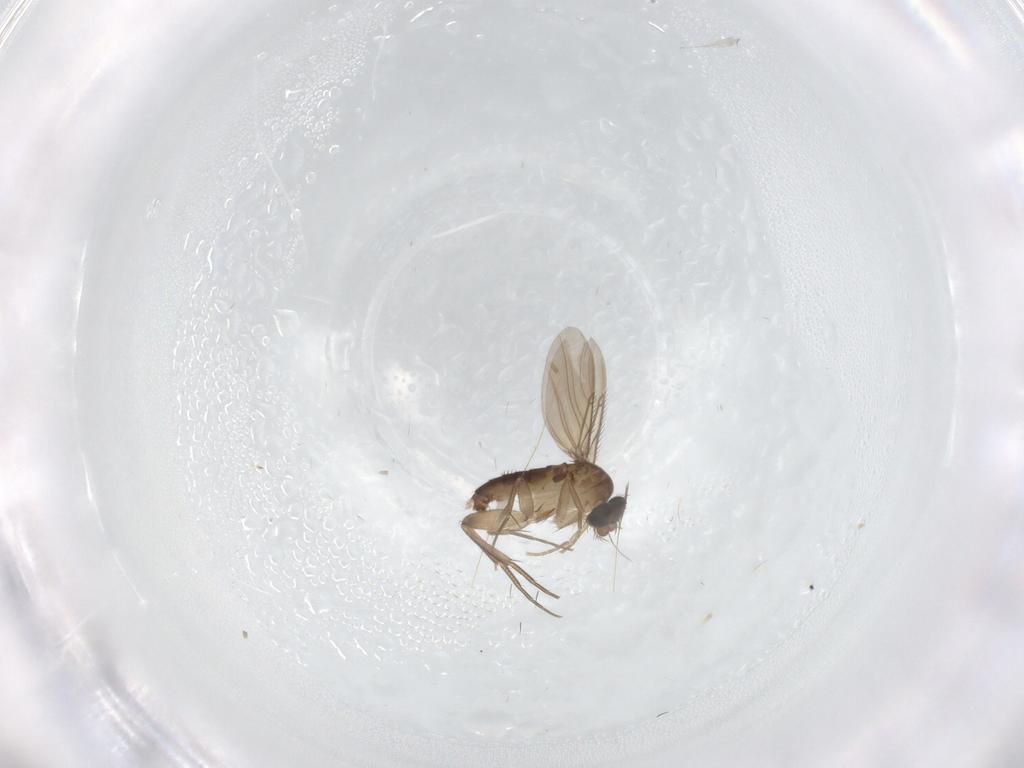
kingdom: Animalia
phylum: Arthropoda
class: Insecta
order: Diptera
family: Phoridae
